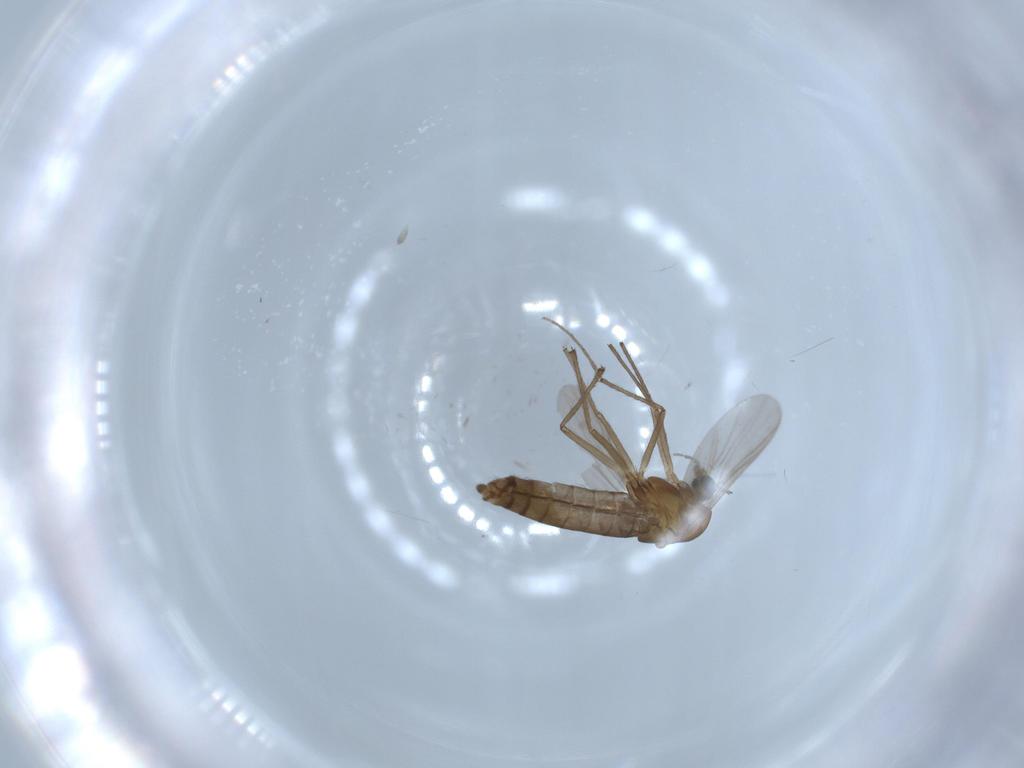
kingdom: Animalia
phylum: Arthropoda
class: Insecta
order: Diptera
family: Chironomidae
